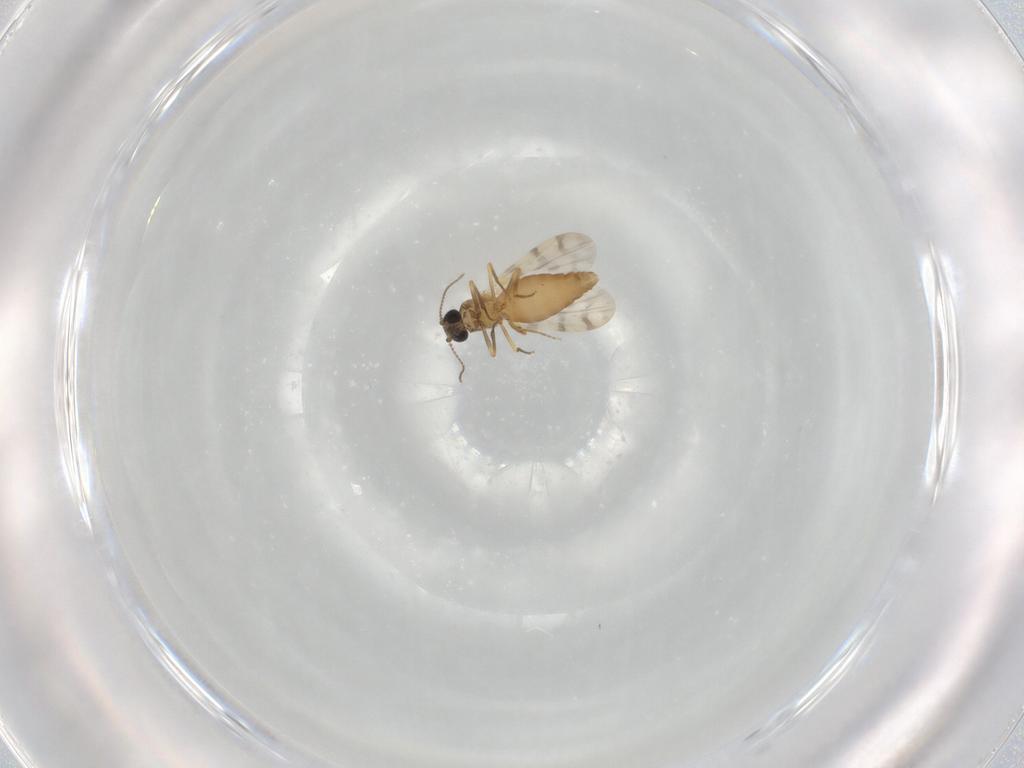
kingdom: Animalia
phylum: Arthropoda
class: Insecta
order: Diptera
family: Ceratopogonidae
